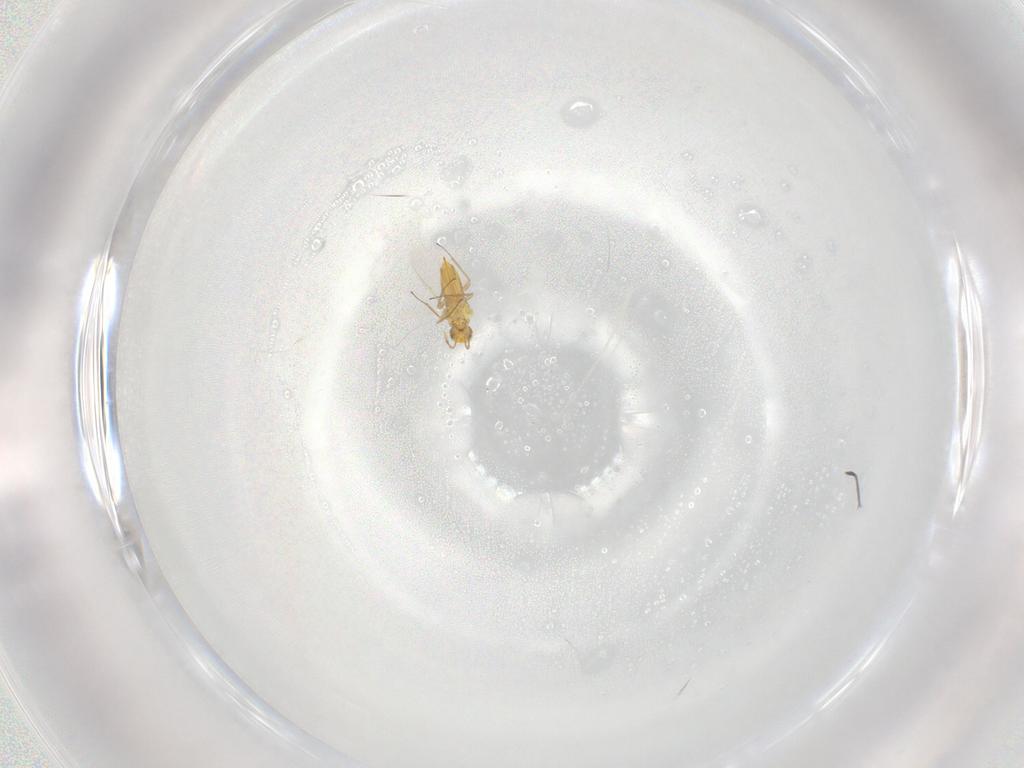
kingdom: Animalia
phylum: Arthropoda
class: Insecta
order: Hymenoptera
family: Aphelinidae
